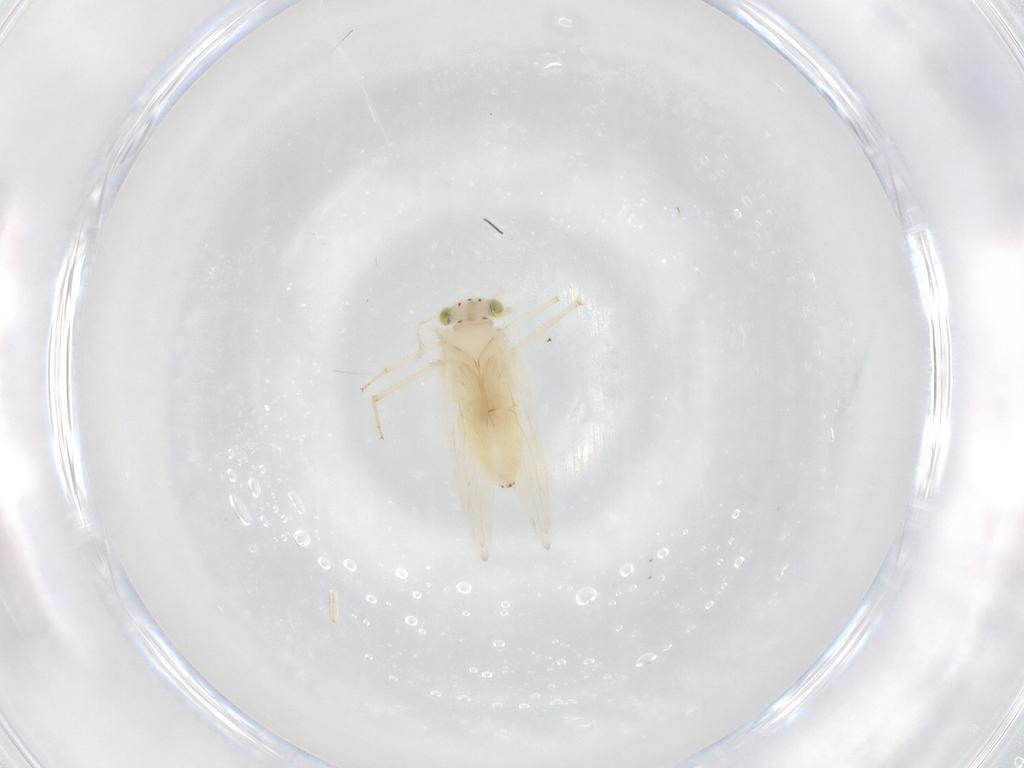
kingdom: Animalia
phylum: Arthropoda
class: Insecta
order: Psocodea
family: Lepidopsocidae
